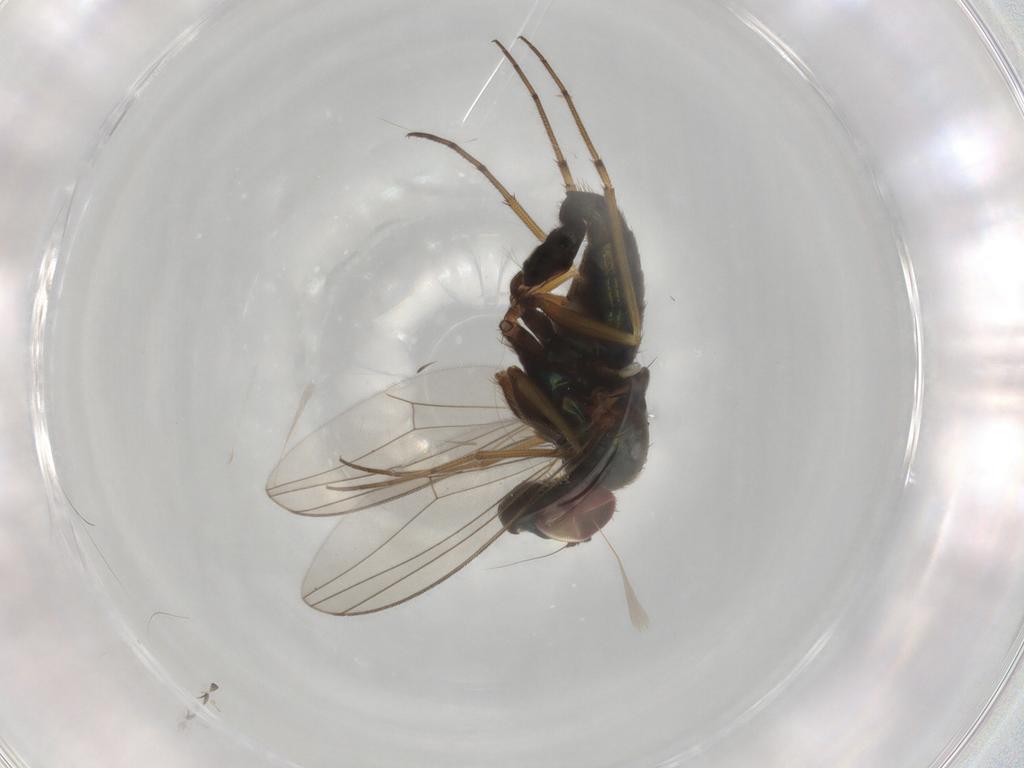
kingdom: Animalia
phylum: Arthropoda
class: Insecta
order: Diptera
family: Dolichopodidae
